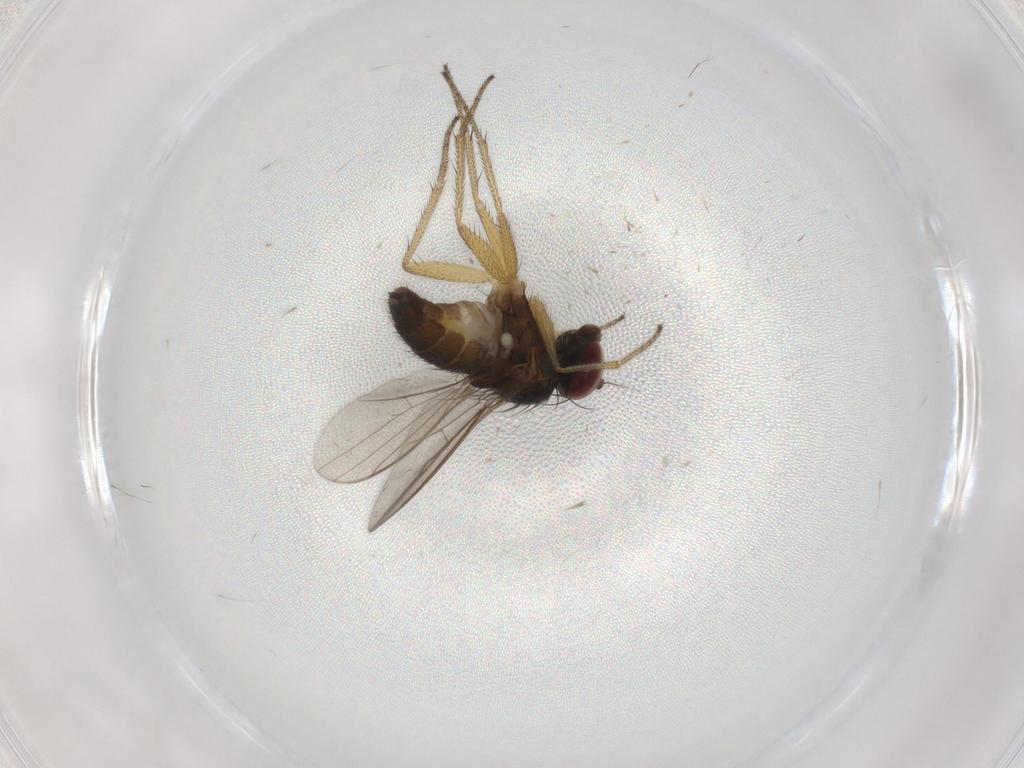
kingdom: Animalia
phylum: Arthropoda
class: Insecta
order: Diptera
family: Dolichopodidae
